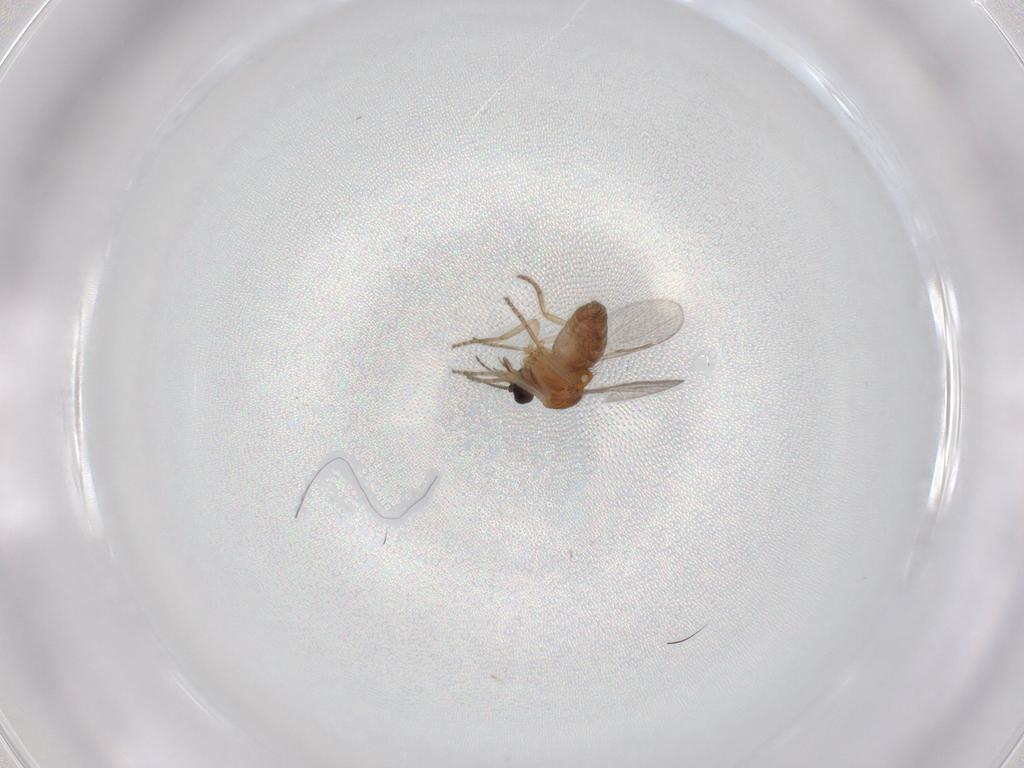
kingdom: Animalia
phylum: Arthropoda
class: Insecta
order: Diptera
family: Ceratopogonidae
